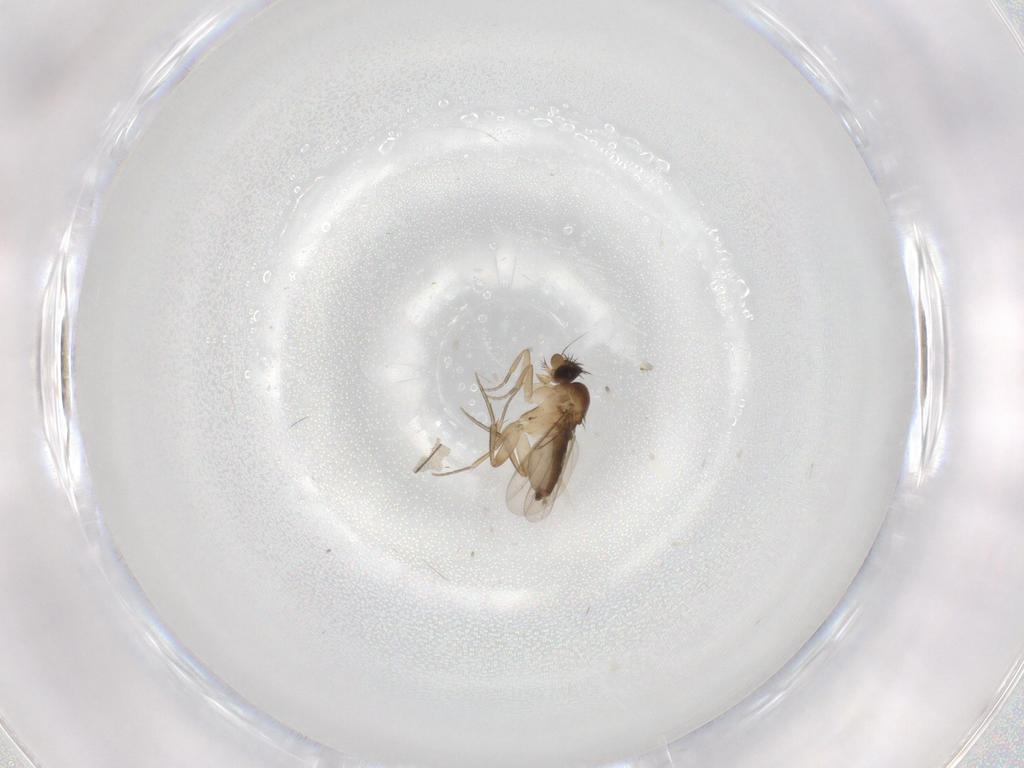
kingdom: Animalia
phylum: Arthropoda
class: Insecta
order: Diptera
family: Phoridae
